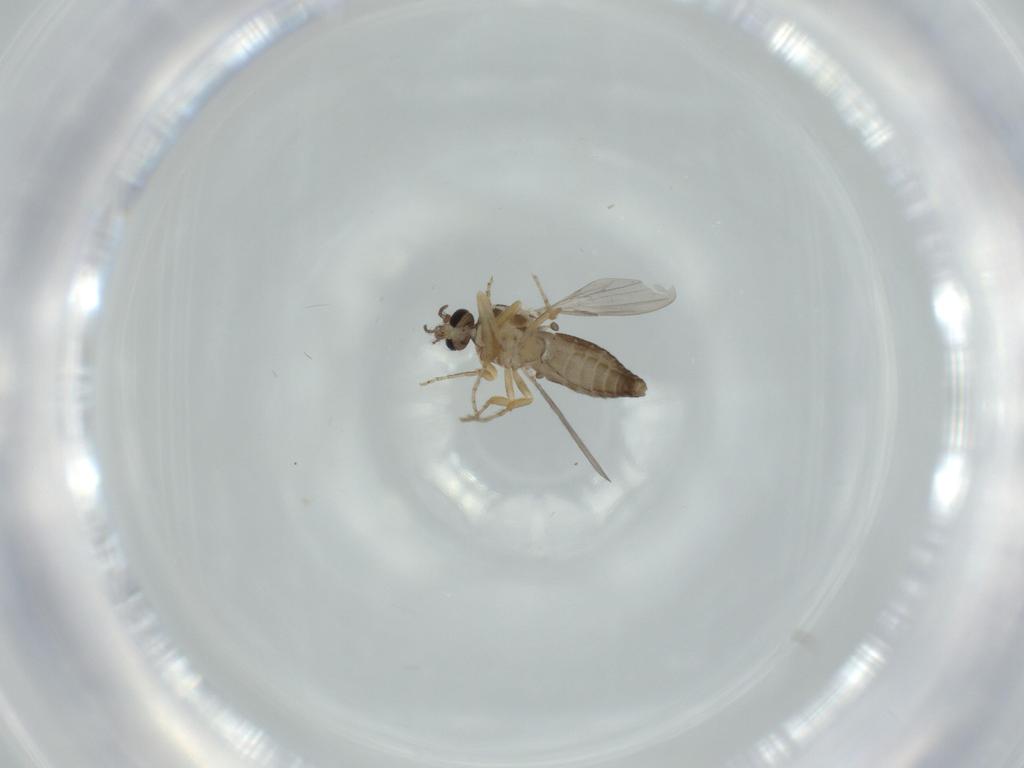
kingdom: Animalia
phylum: Arthropoda
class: Insecta
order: Diptera
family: Ceratopogonidae
